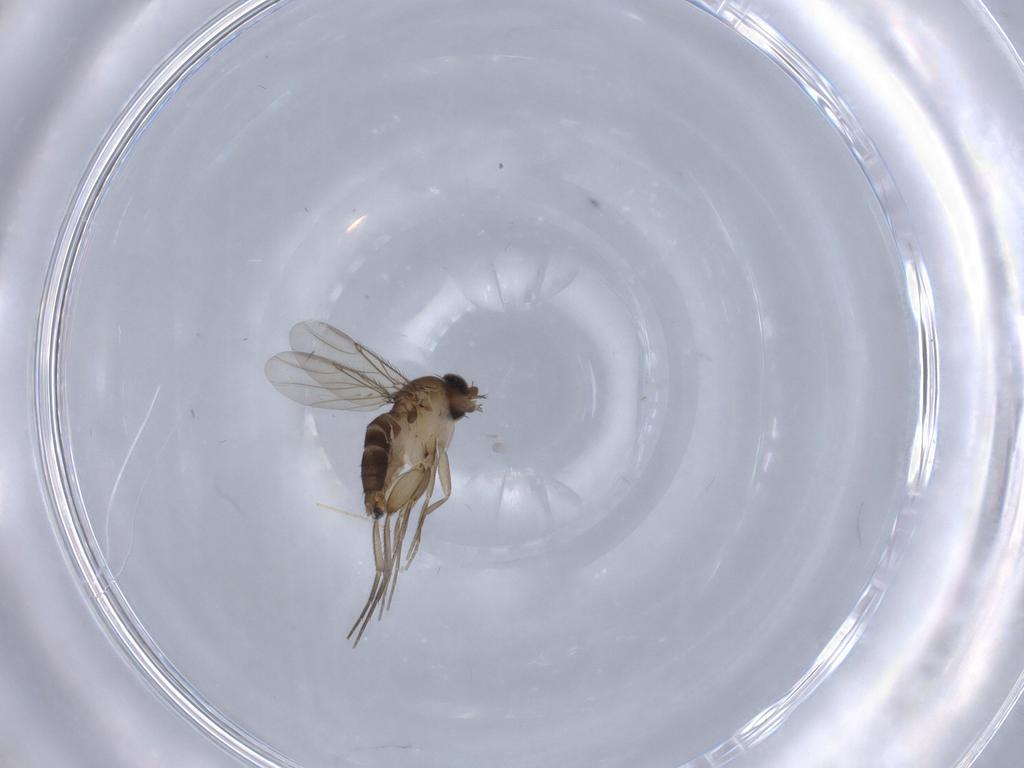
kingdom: Animalia
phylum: Arthropoda
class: Insecta
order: Diptera
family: Phoridae
